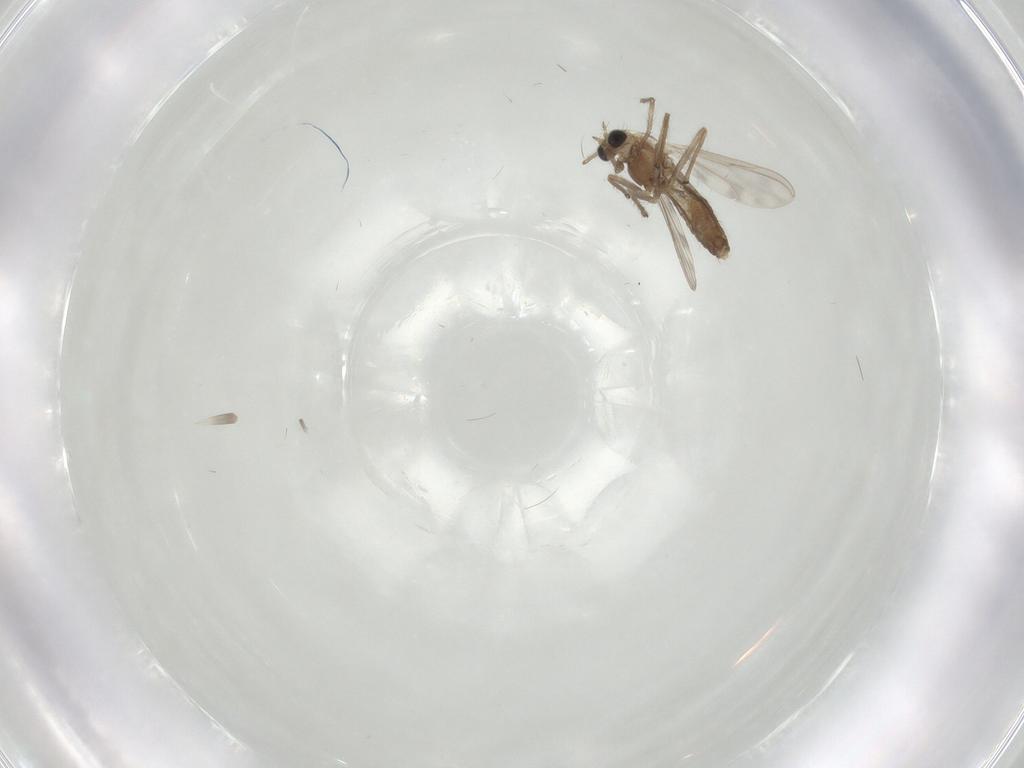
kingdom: Animalia
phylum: Arthropoda
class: Insecta
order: Diptera
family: Chironomidae
